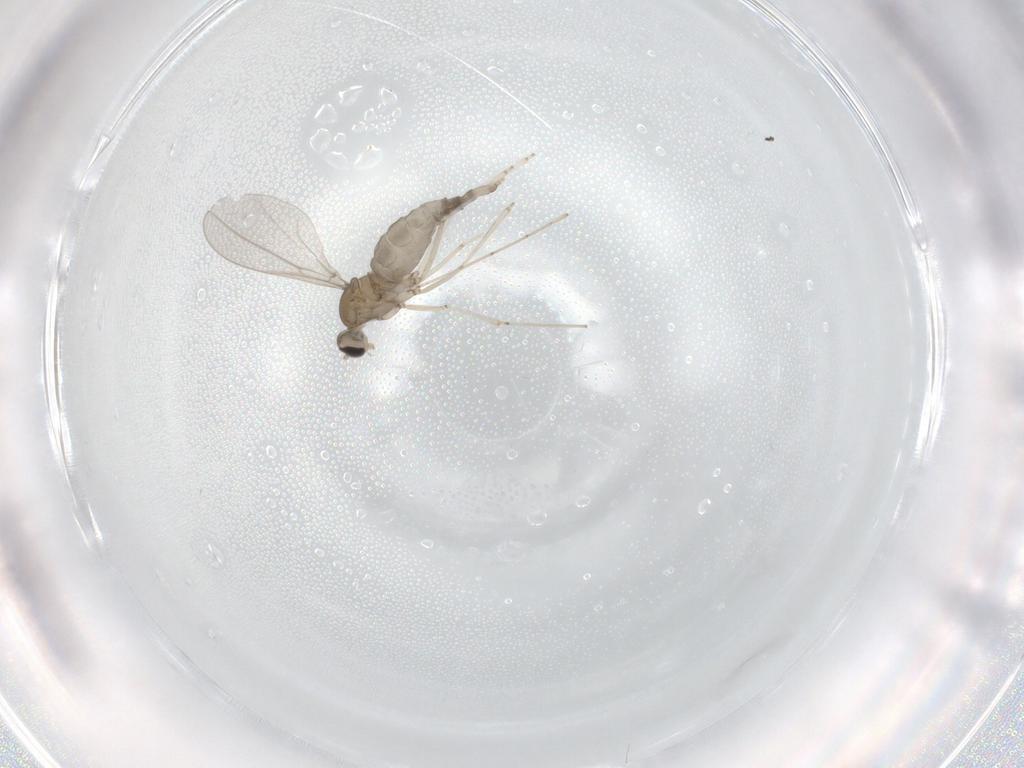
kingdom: Animalia
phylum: Arthropoda
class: Insecta
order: Diptera
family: Cecidomyiidae
